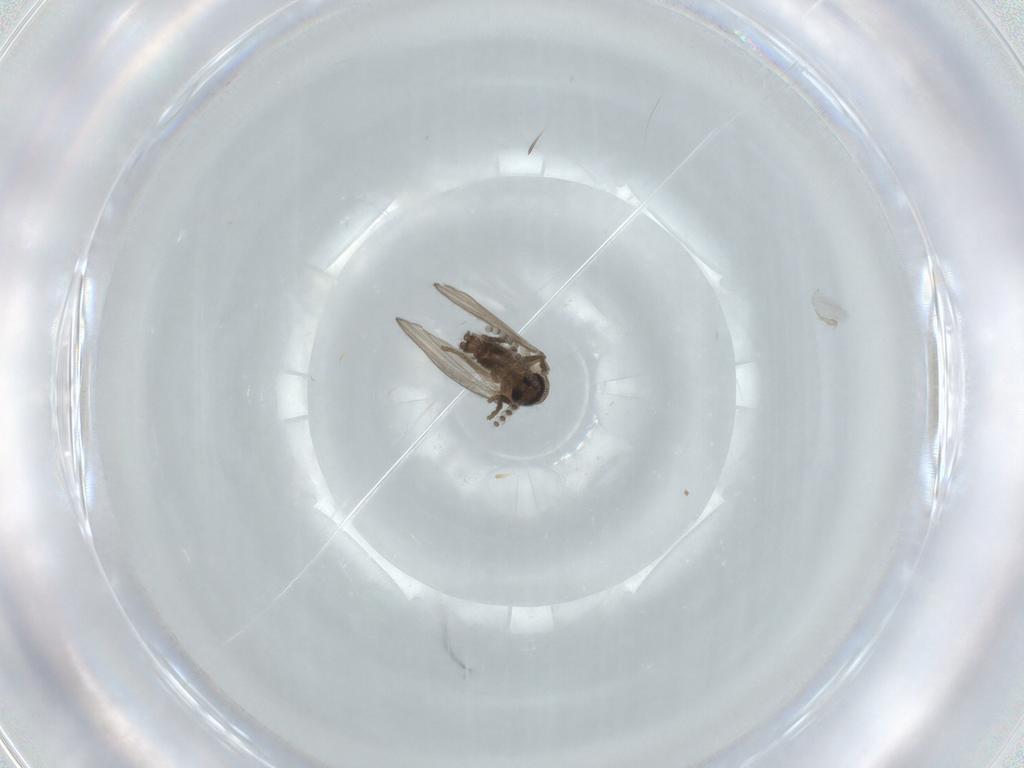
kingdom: Animalia
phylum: Arthropoda
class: Insecta
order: Diptera
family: Psychodidae
